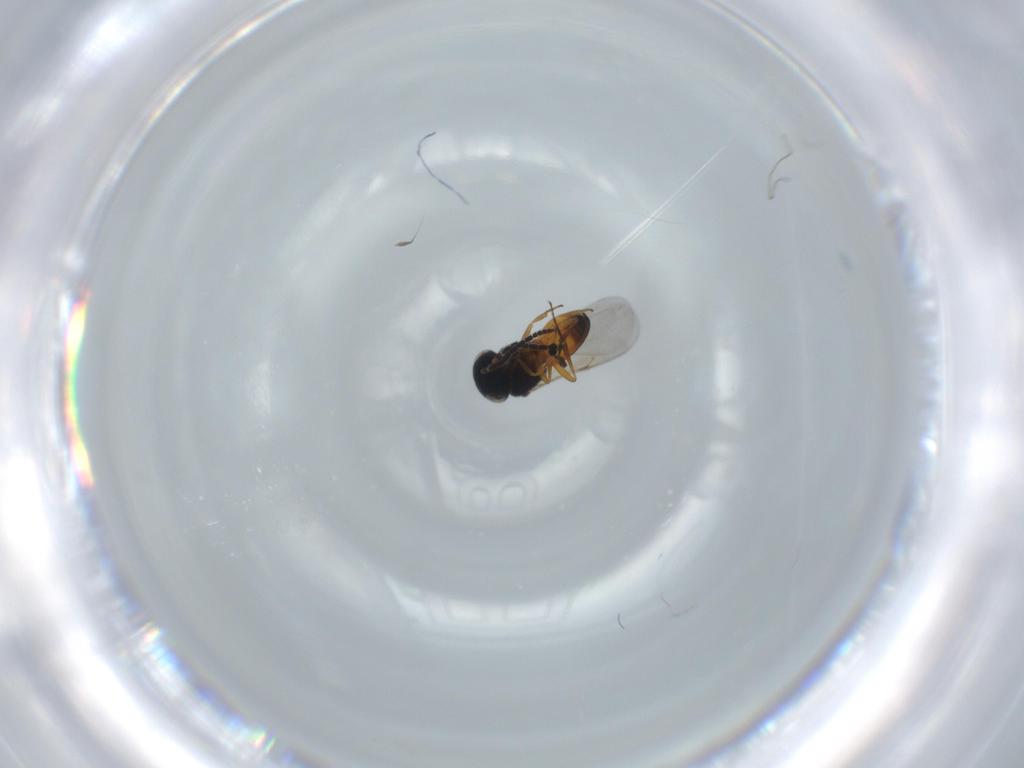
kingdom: Animalia
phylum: Arthropoda
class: Insecta
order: Hymenoptera
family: Scelionidae
